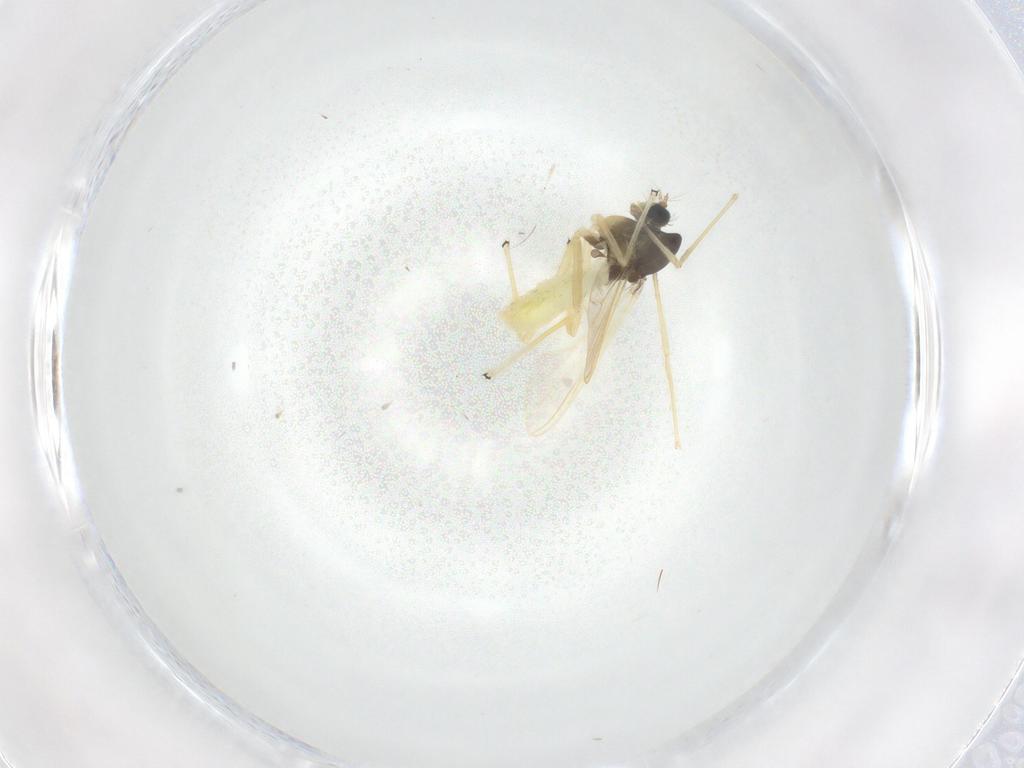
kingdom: Animalia
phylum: Arthropoda
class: Insecta
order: Diptera
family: Chironomidae
